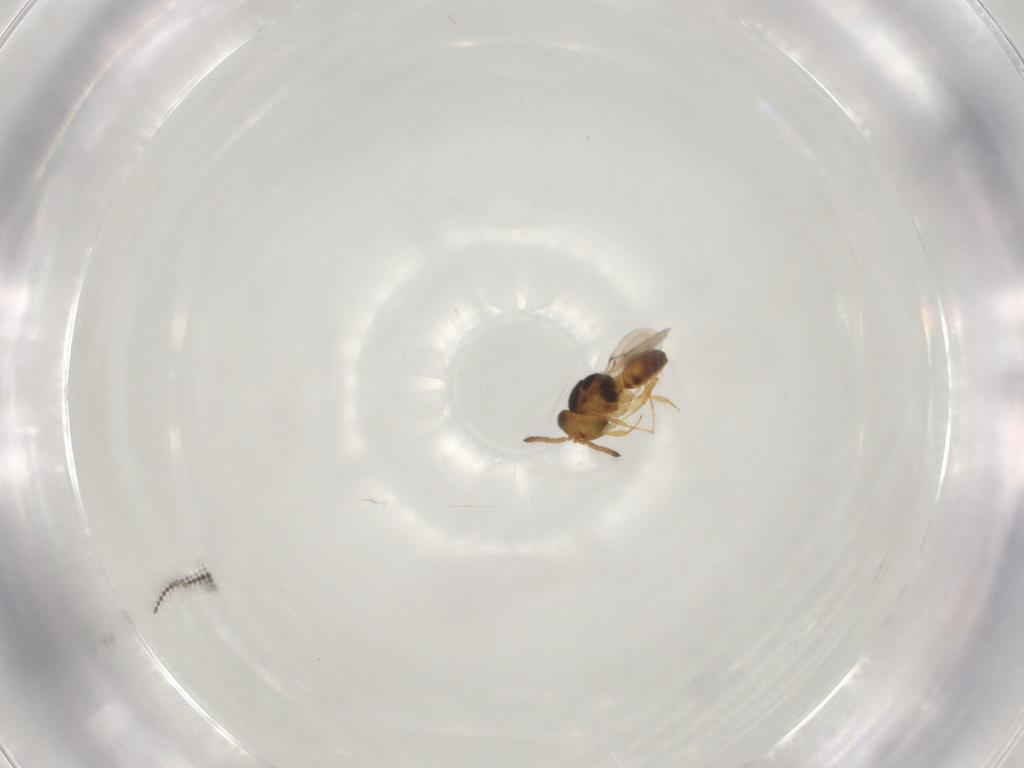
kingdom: Animalia
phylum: Arthropoda
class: Insecta
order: Hymenoptera
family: Scelionidae
